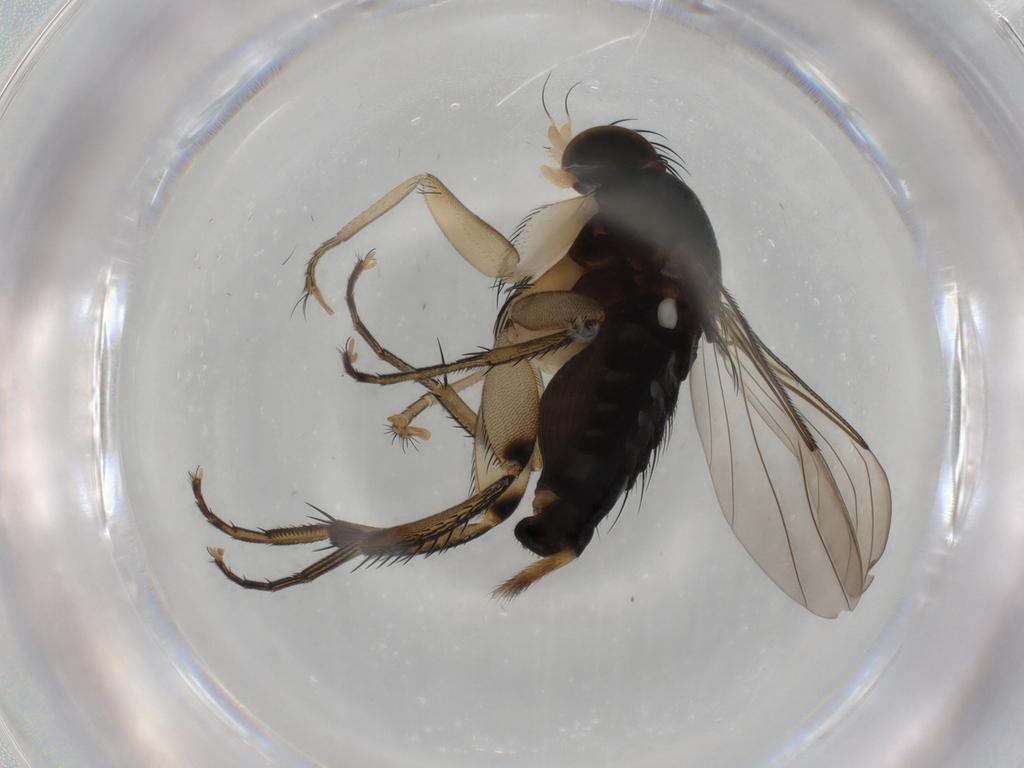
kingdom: Animalia
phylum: Arthropoda
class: Insecta
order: Diptera
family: Phoridae
